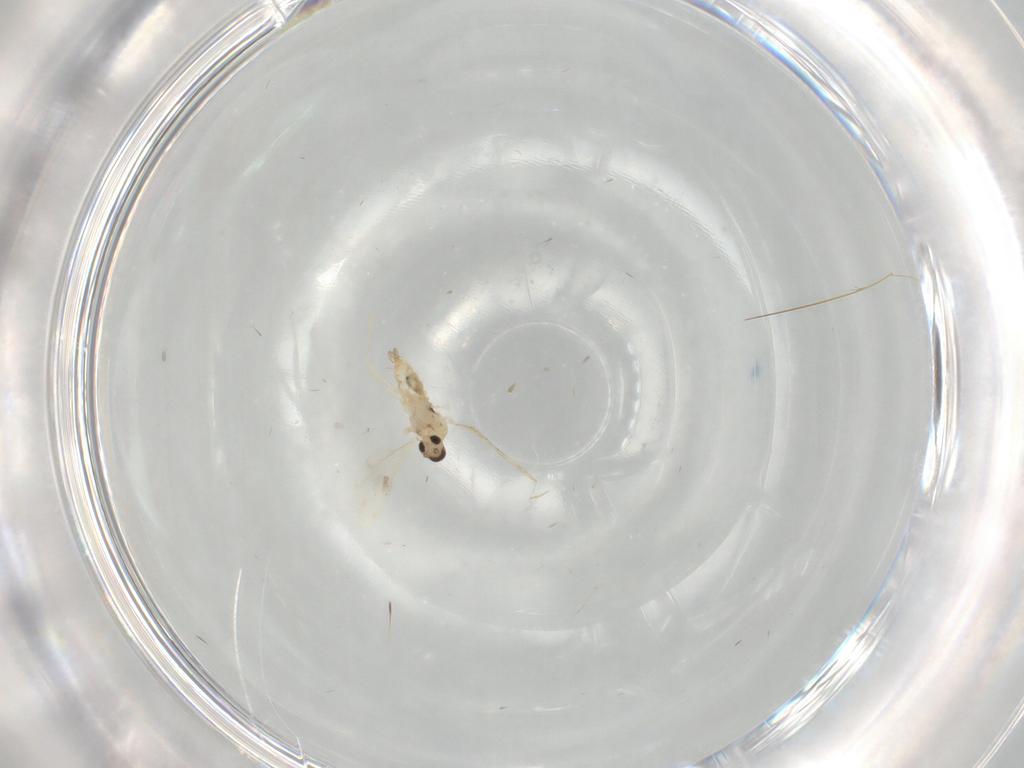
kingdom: Animalia
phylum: Arthropoda
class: Insecta
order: Diptera
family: Cecidomyiidae
